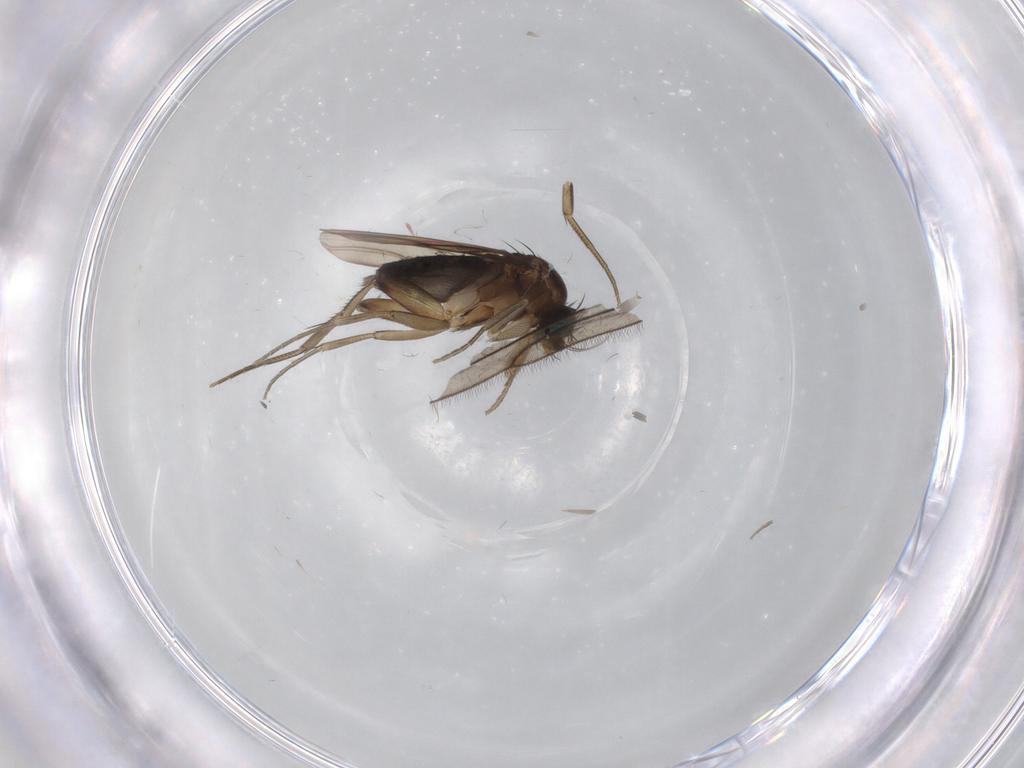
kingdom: Animalia
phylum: Arthropoda
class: Insecta
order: Diptera
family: Phoridae
